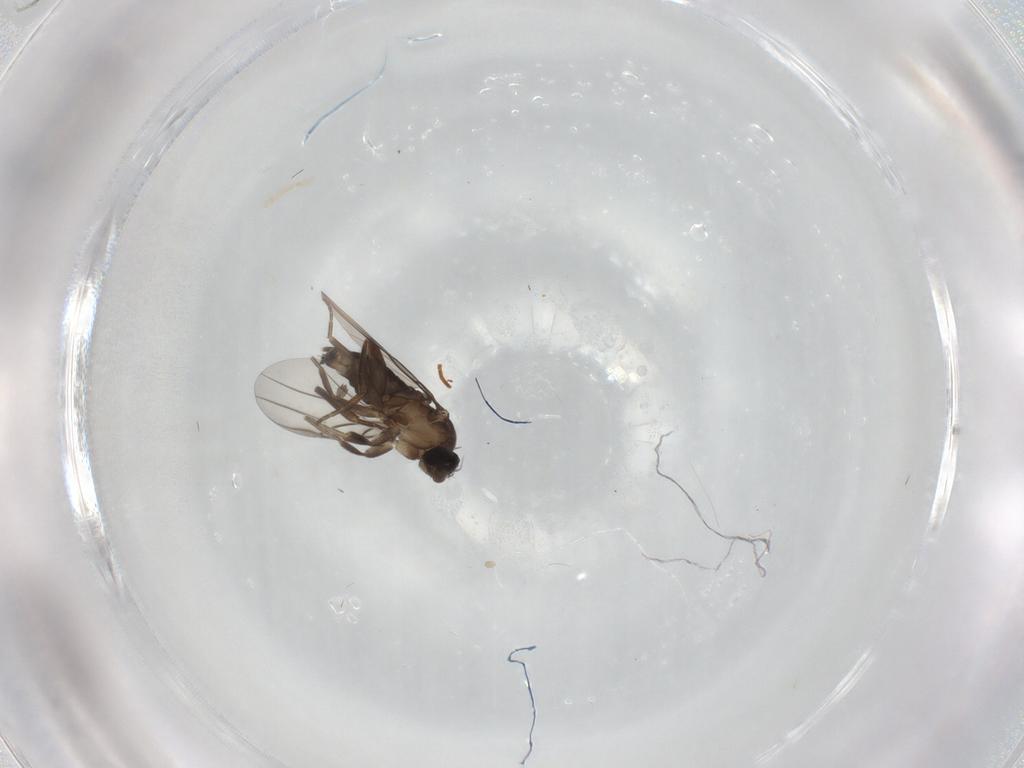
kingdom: Animalia
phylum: Arthropoda
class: Insecta
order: Diptera
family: Phoridae
